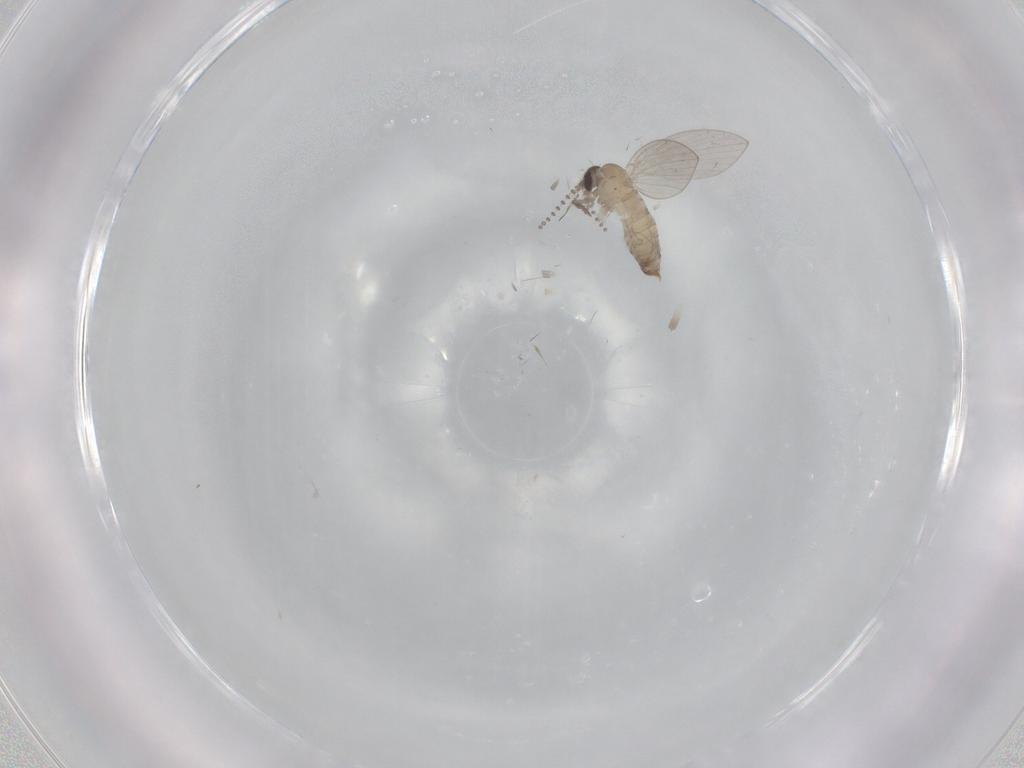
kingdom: Animalia
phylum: Arthropoda
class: Insecta
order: Diptera
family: Psychodidae
